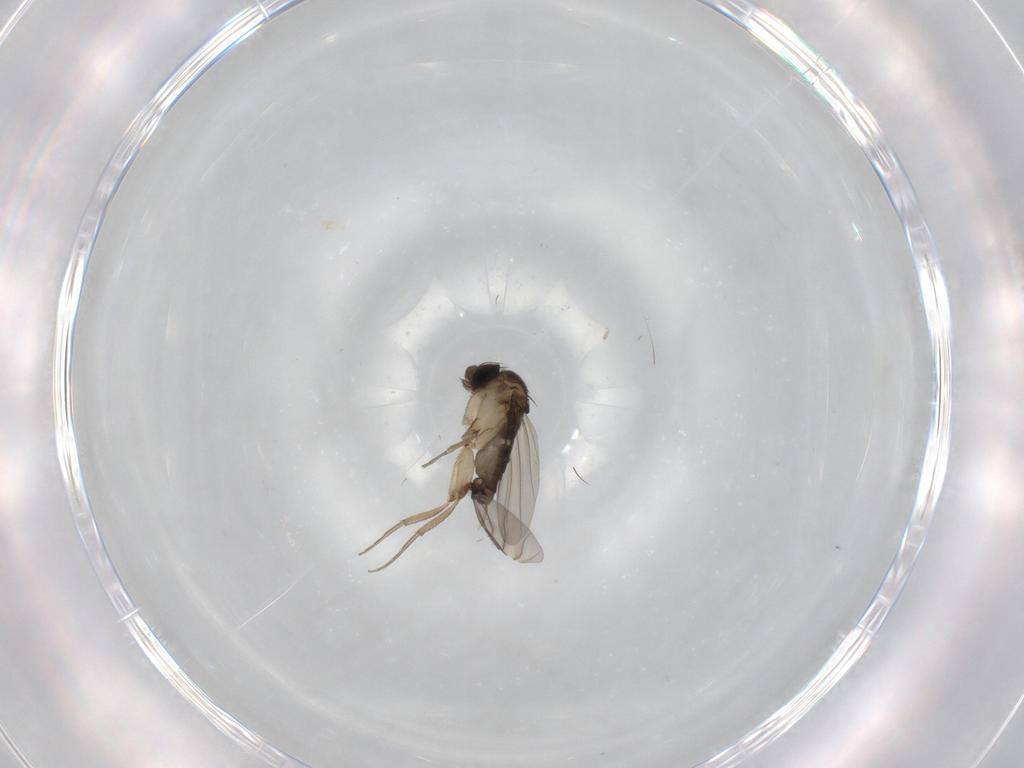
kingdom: Animalia
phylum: Arthropoda
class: Insecta
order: Diptera
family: Phoridae
